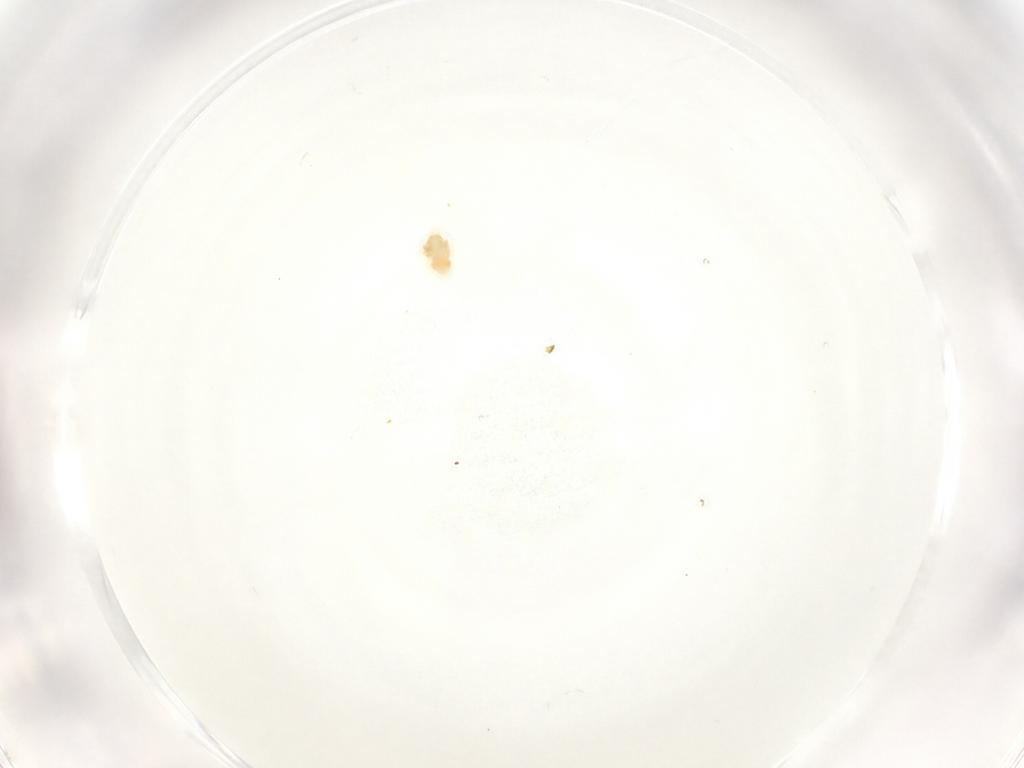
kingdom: Animalia
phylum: Arthropoda
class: Arachnida
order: Trombidiformes
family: Eupodidae
